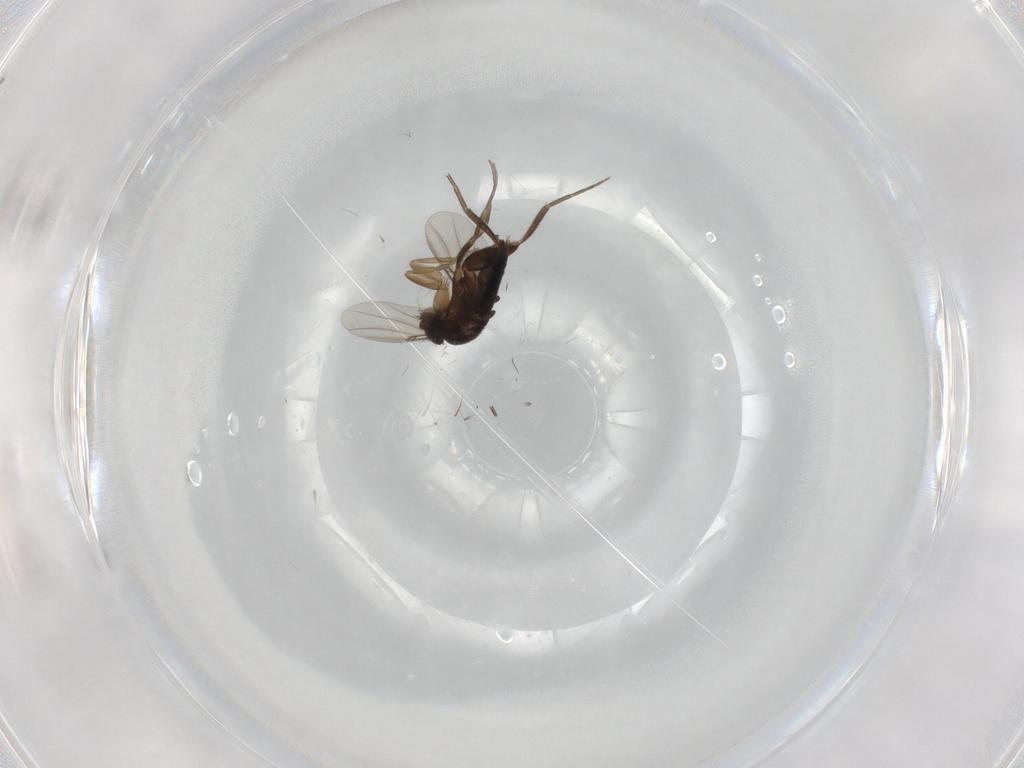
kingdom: Animalia
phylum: Arthropoda
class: Insecta
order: Diptera
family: Phoridae
